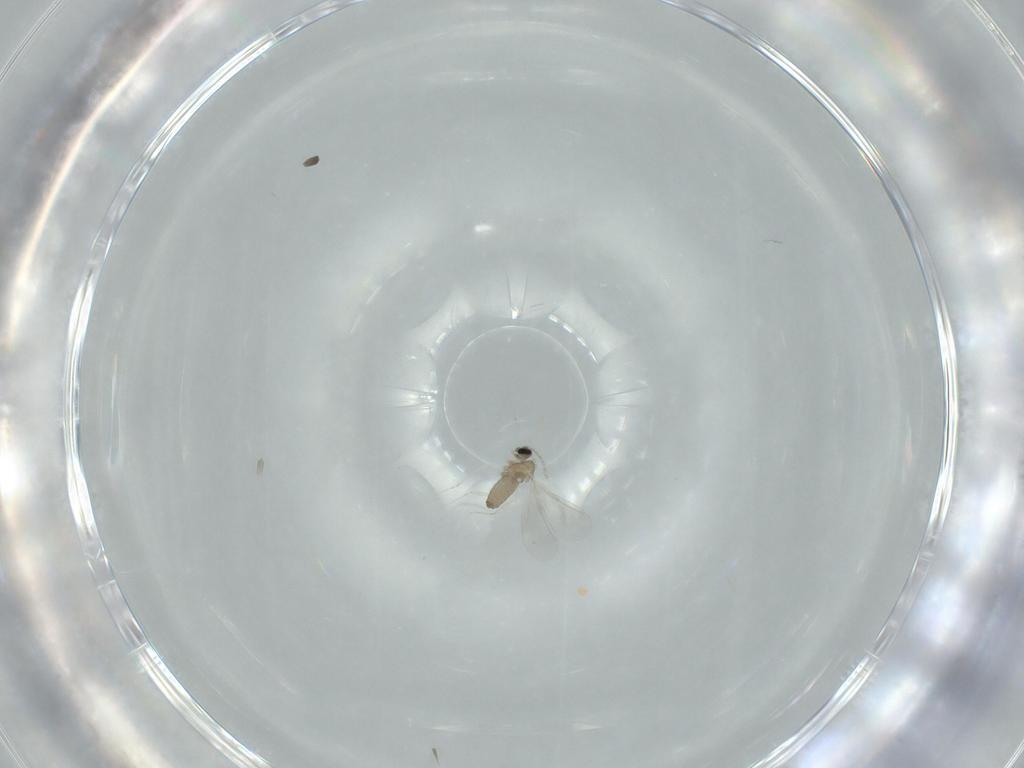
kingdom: Animalia
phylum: Arthropoda
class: Insecta
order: Diptera
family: Cecidomyiidae
